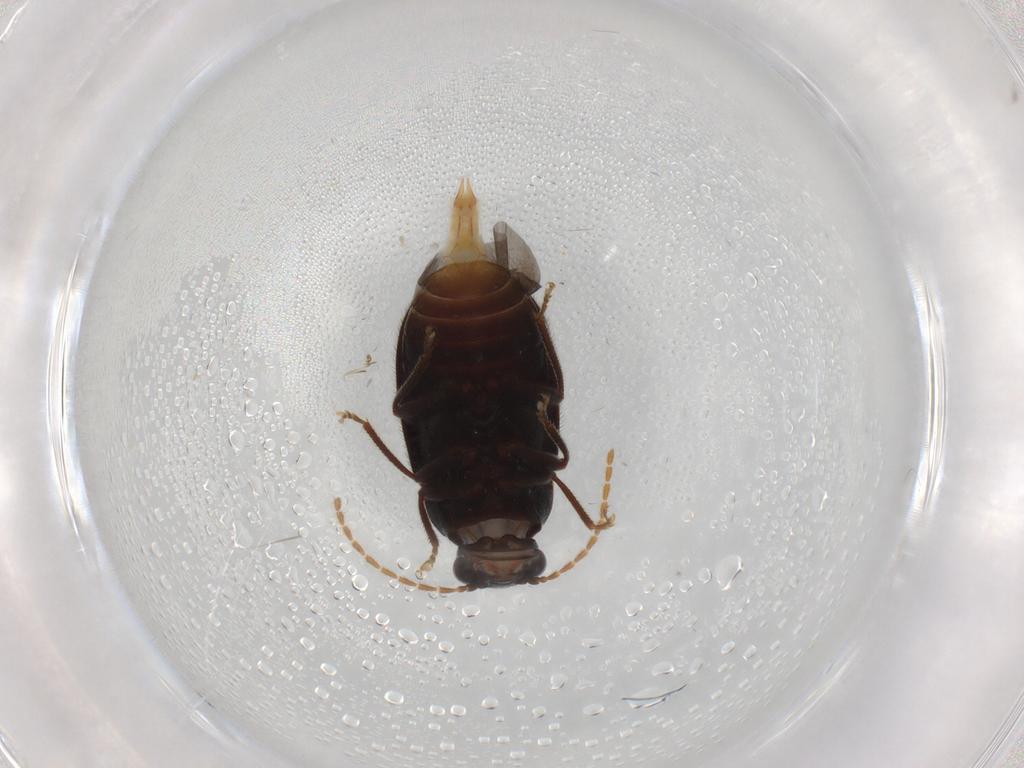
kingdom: Animalia
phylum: Arthropoda
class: Insecta
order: Coleoptera
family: Ptilodactylidae
